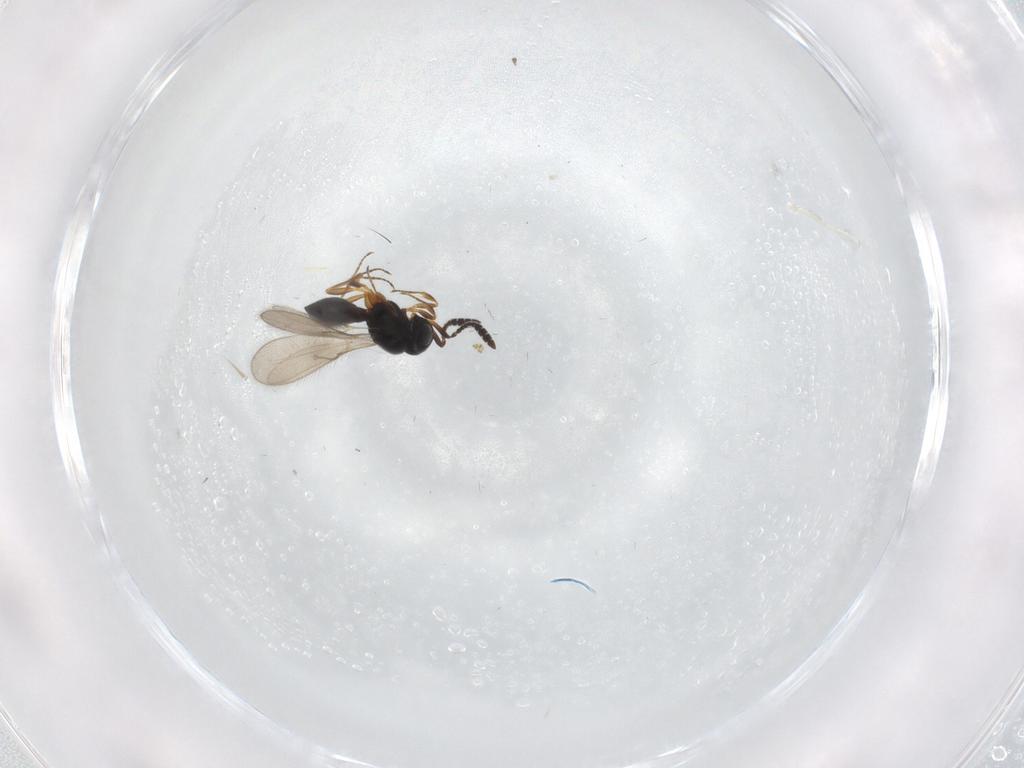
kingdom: Animalia
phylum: Arthropoda
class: Insecta
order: Hymenoptera
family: Scelionidae
